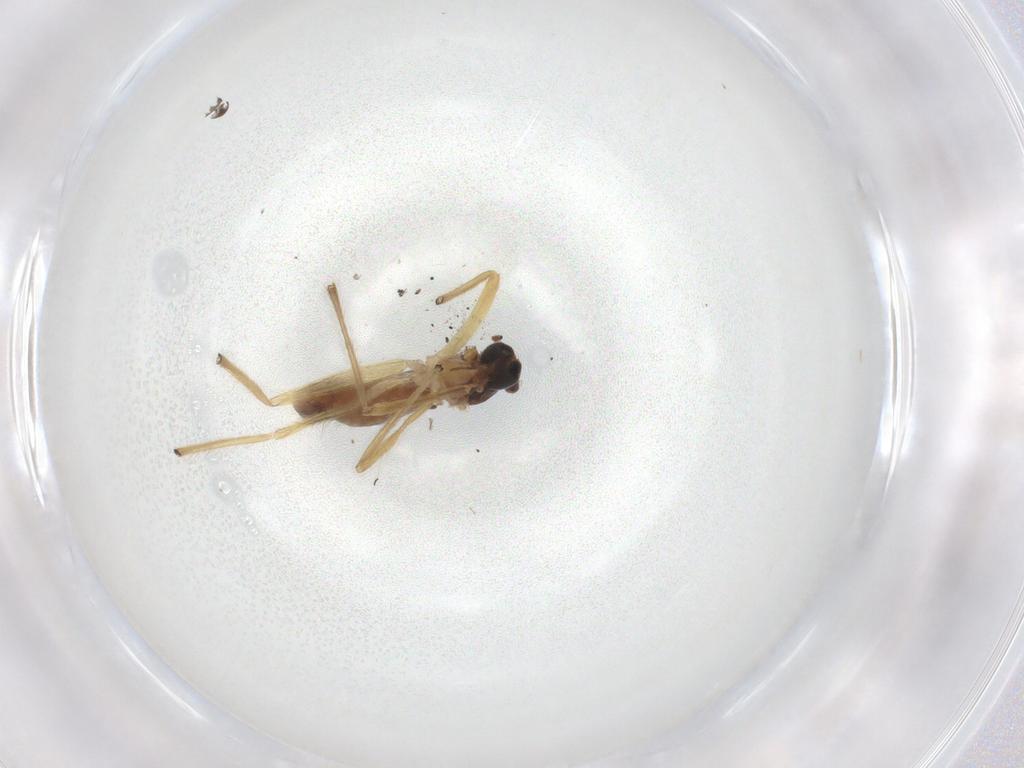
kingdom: Animalia
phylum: Arthropoda
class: Insecta
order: Diptera
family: Chironomidae
